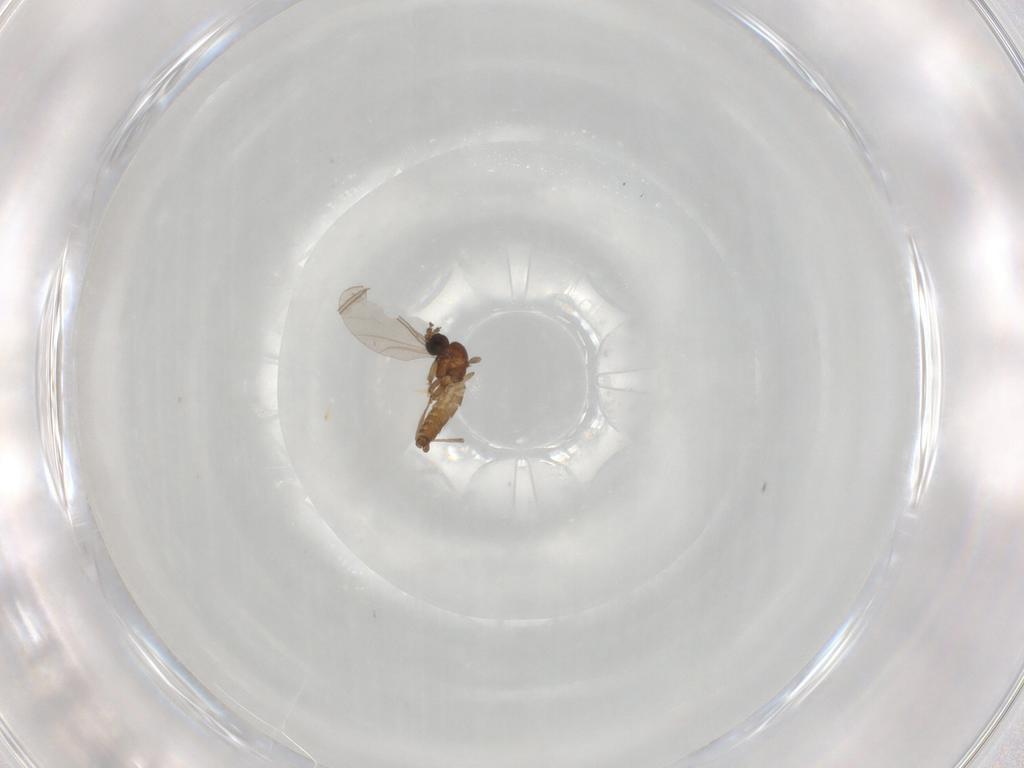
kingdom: Animalia
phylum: Arthropoda
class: Insecta
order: Diptera
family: Sciaridae
